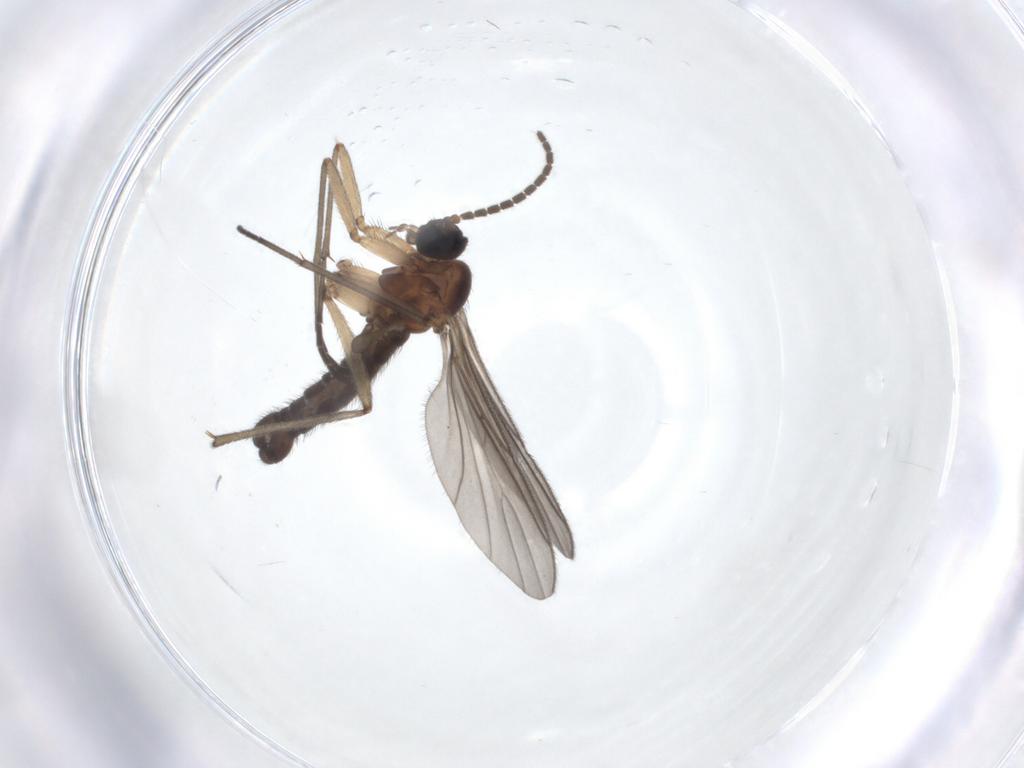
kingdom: Animalia
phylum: Arthropoda
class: Insecta
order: Diptera
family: Sciaridae
